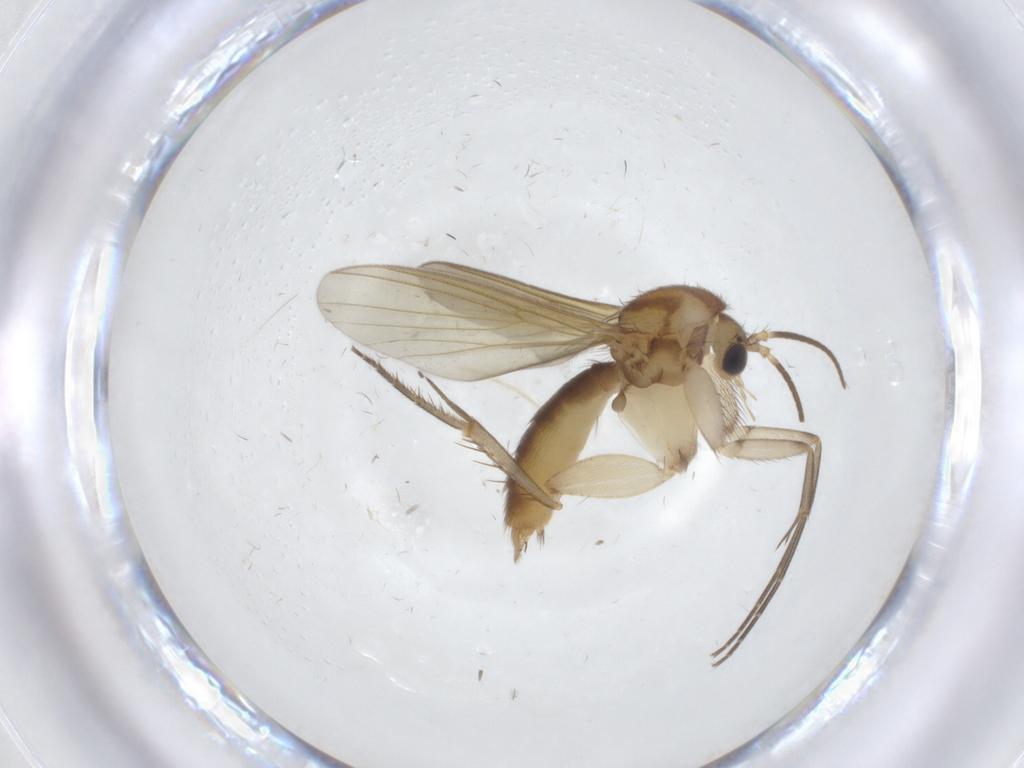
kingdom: Animalia
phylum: Arthropoda
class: Insecta
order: Diptera
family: Mycetophilidae
